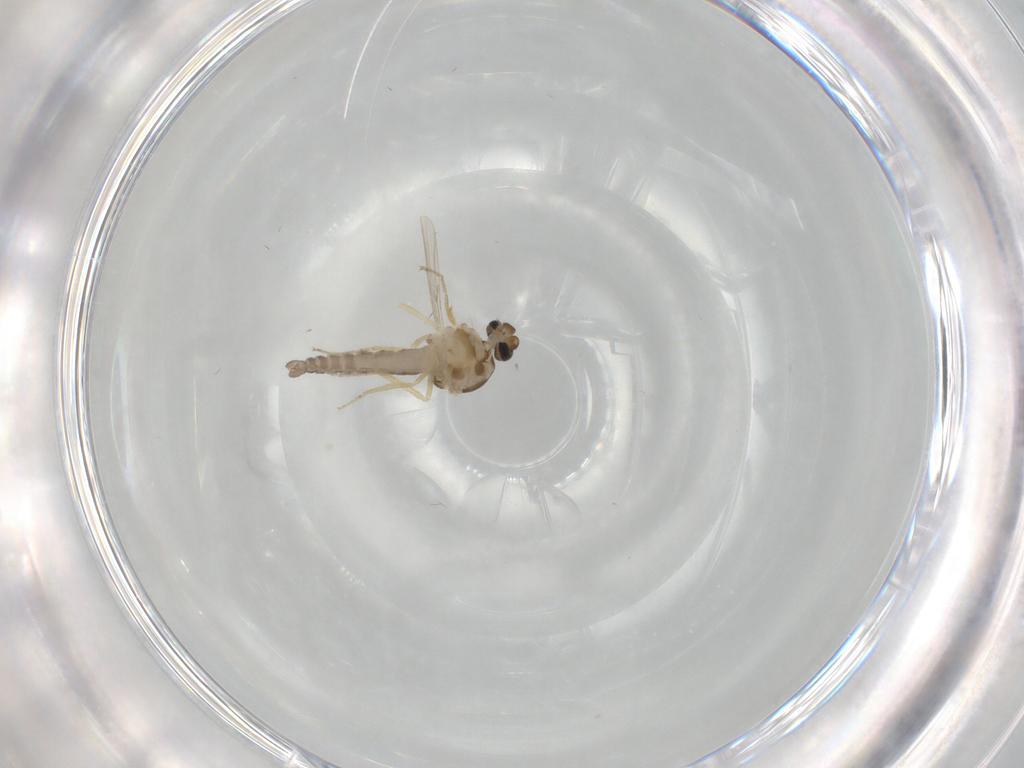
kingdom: Animalia
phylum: Arthropoda
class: Insecta
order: Diptera
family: Ceratopogonidae
